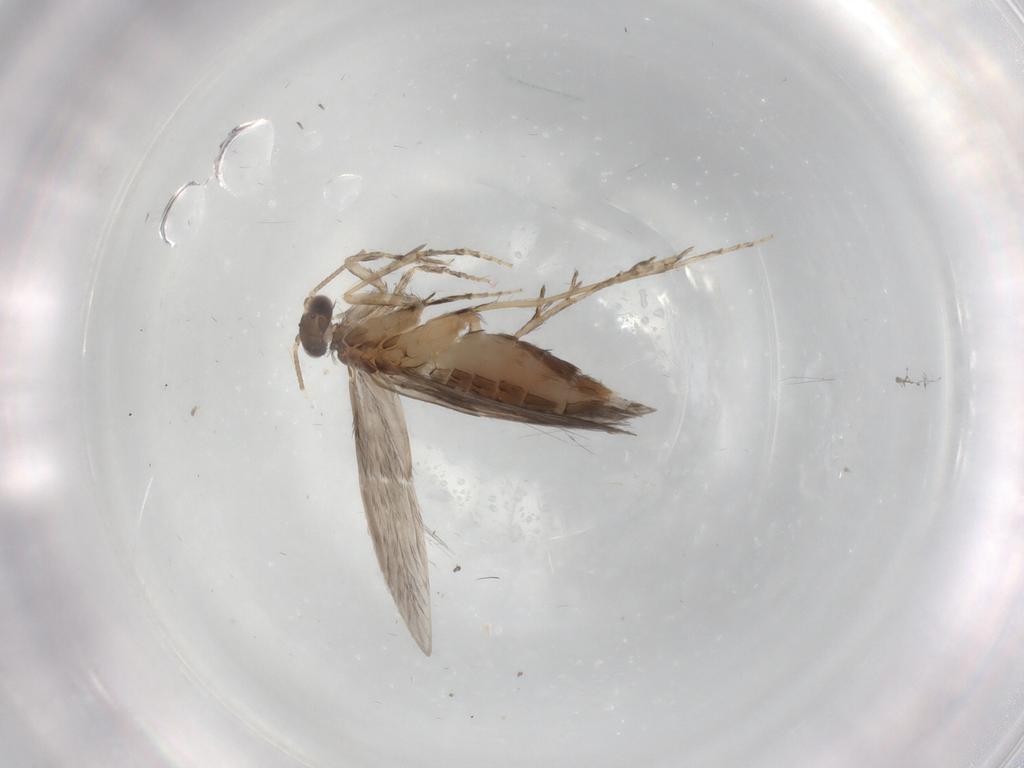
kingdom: Animalia
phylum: Arthropoda
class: Insecta
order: Trichoptera
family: Hydroptilidae
